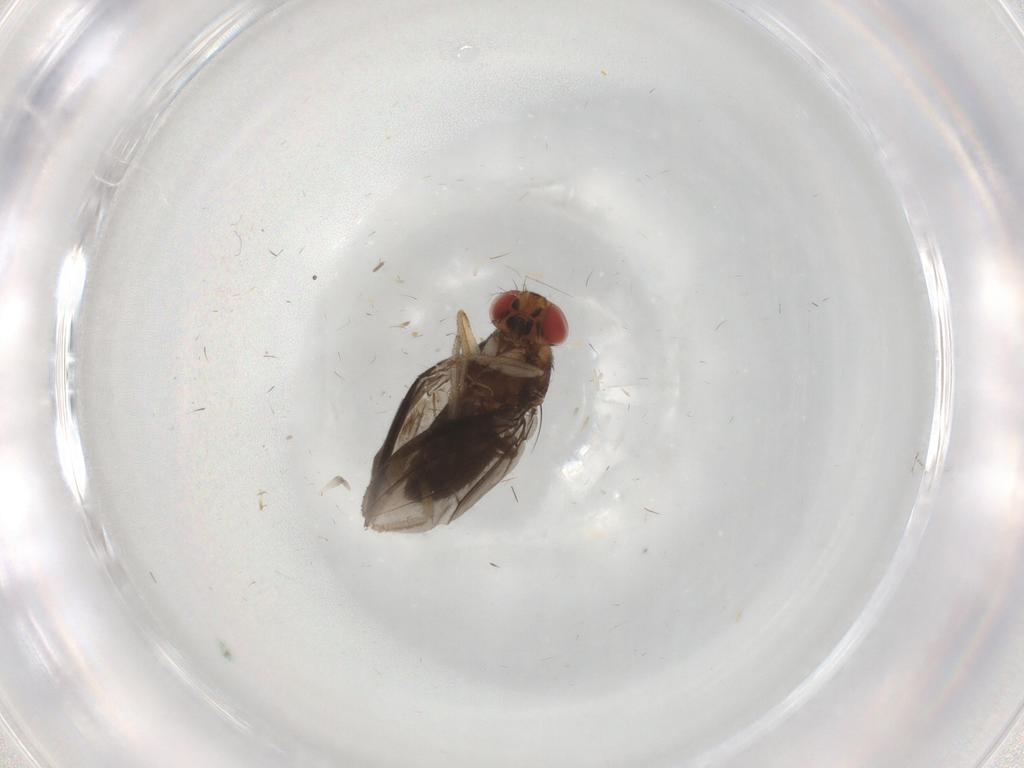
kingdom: Animalia
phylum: Arthropoda
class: Insecta
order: Diptera
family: Drosophilidae
